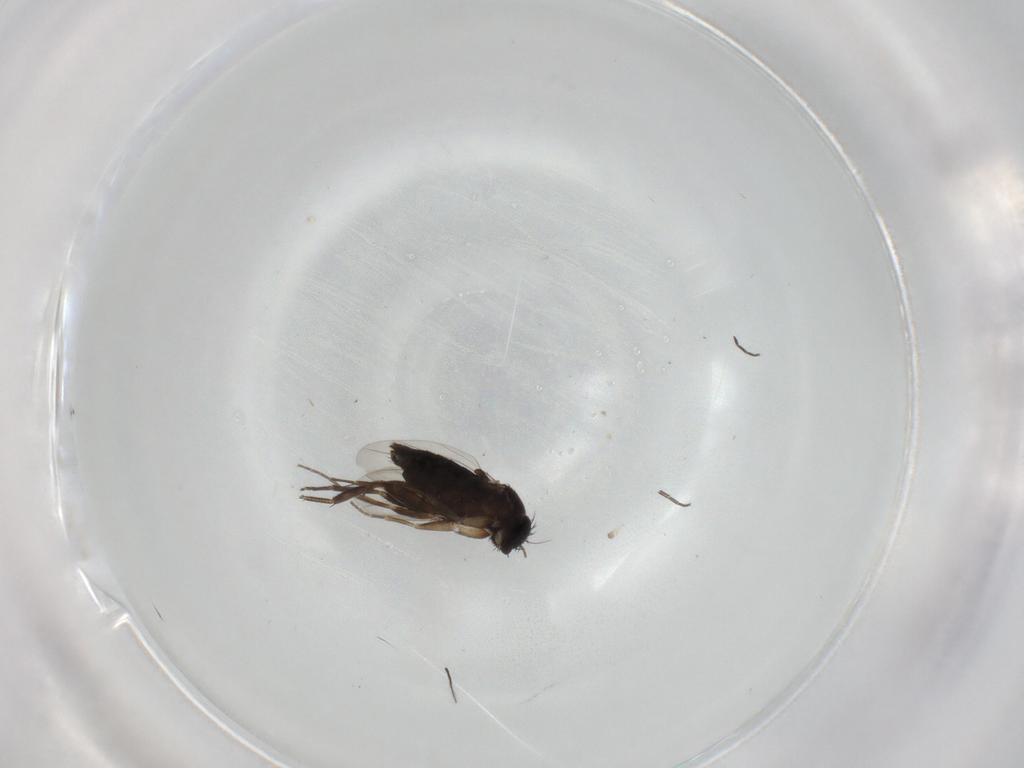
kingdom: Animalia
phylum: Arthropoda
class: Insecta
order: Diptera
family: Dolichopodidae
